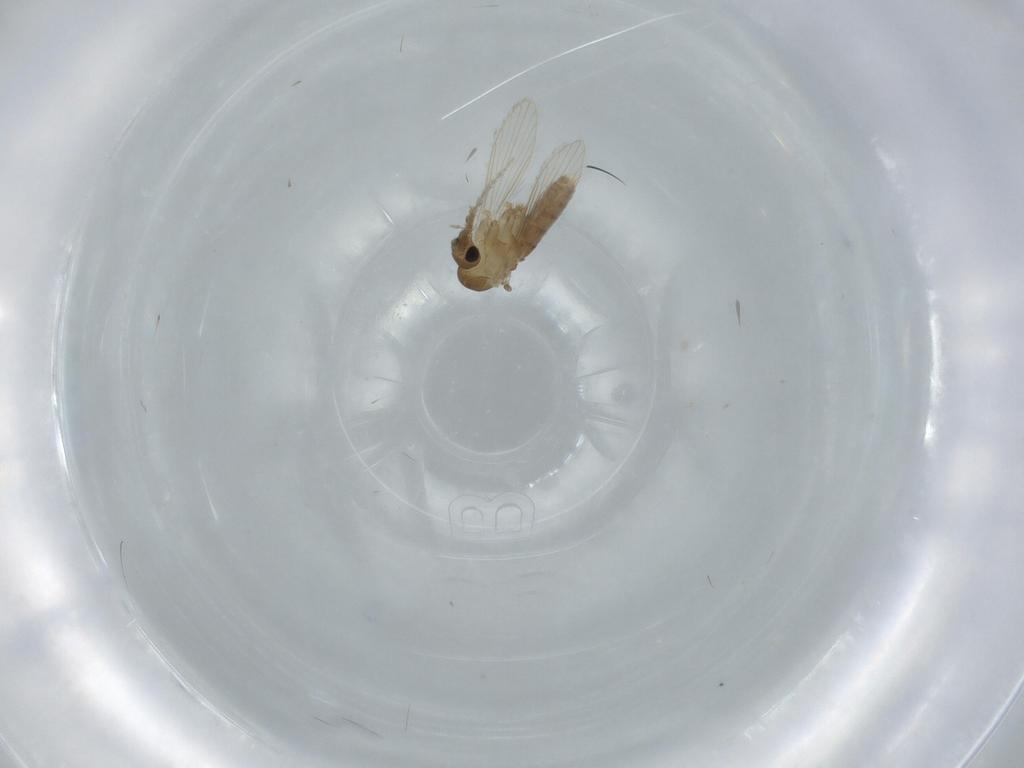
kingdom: Animalia
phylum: Arthropoda
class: Insecta
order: Diptera
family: Psychodidae
